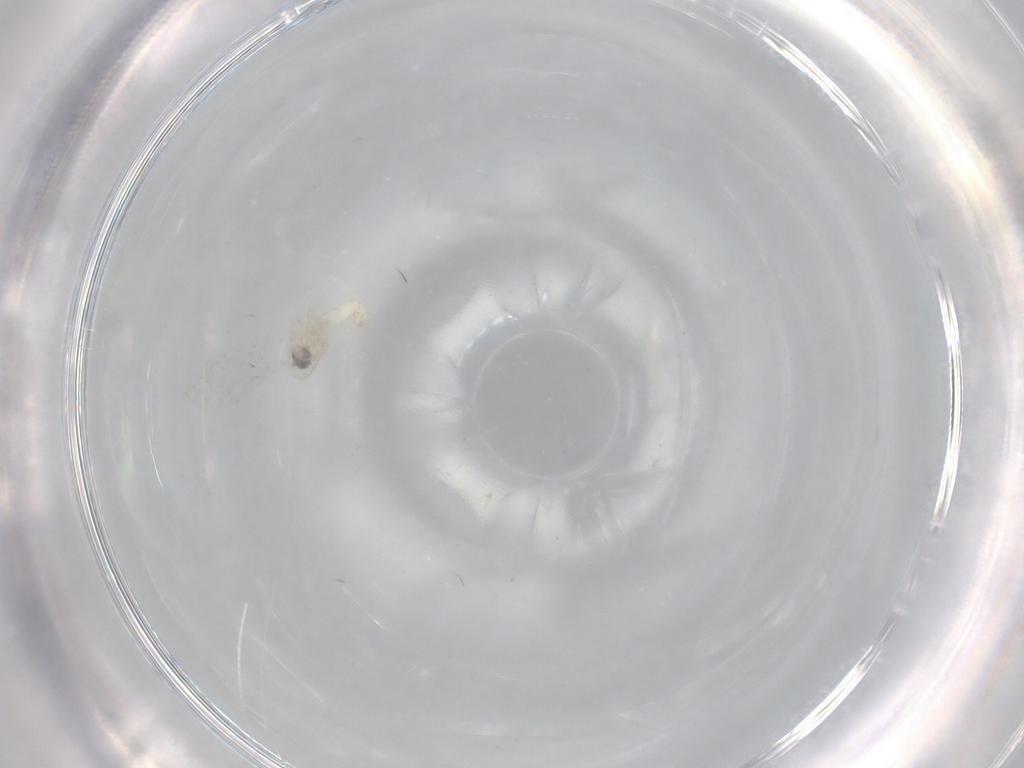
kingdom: Animalia
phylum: Arthropoda
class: Insecta
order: Diptera
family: Cecidomyiidae
